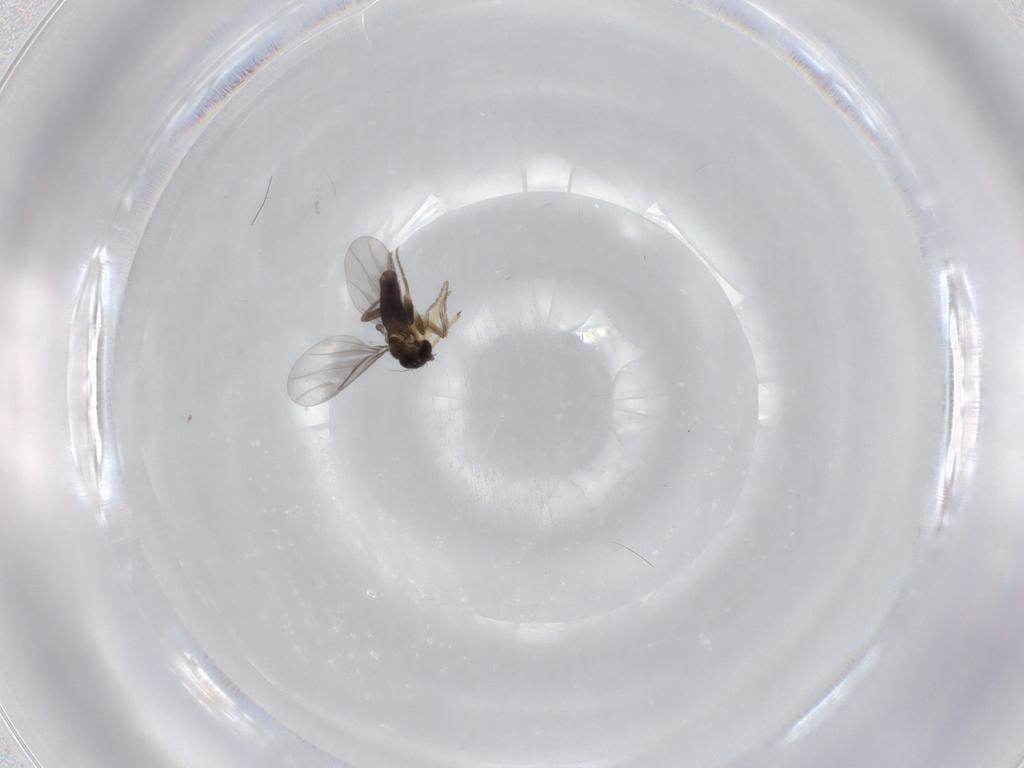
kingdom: Animalia
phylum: Arthropoda
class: Insecta
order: Diptera
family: Chironomidae
